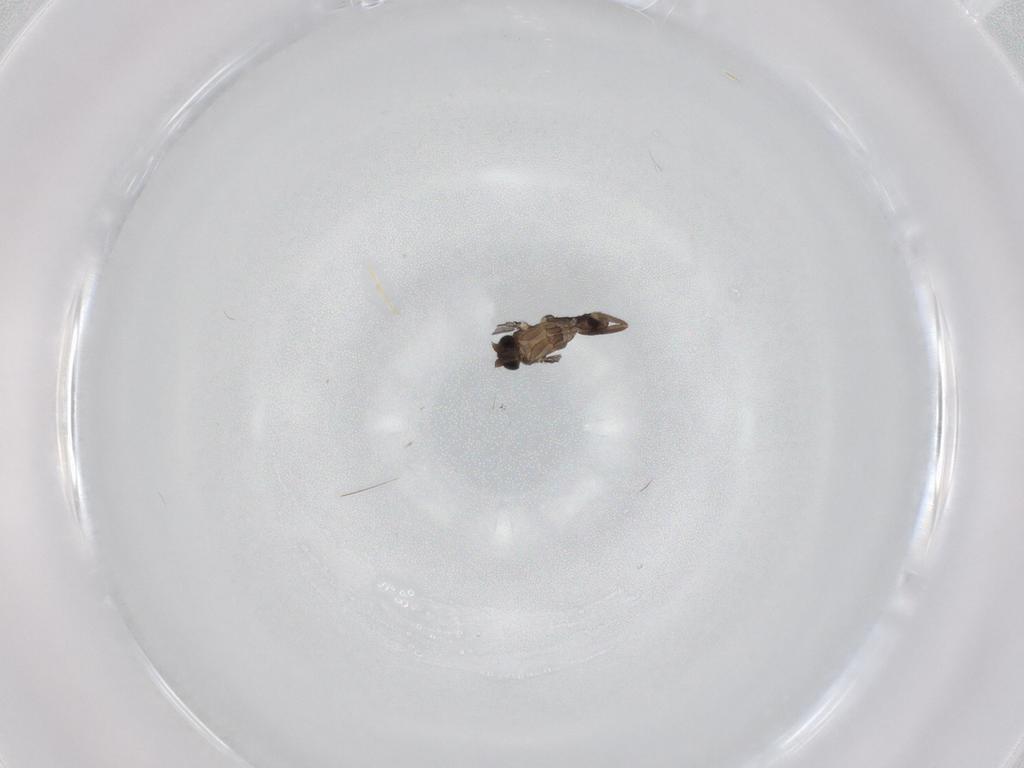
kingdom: Animalia
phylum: Arthropoda
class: Insecta
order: Diptera
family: Phoridae
